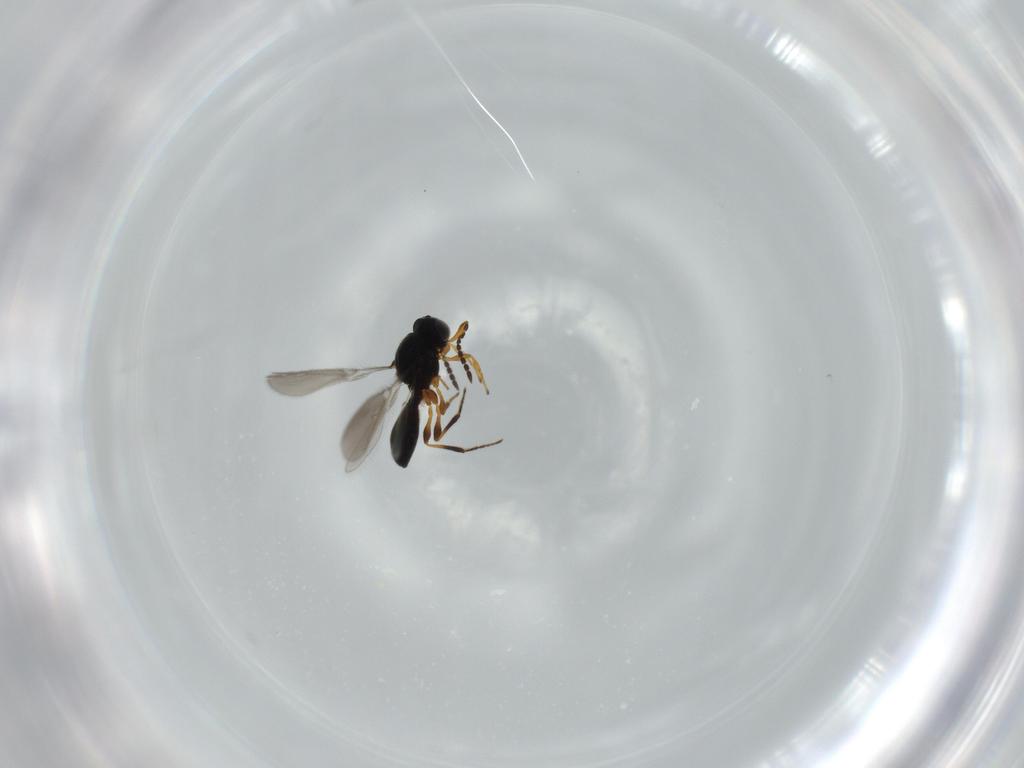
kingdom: Animalia
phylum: Arthropoda
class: Insecta
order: Hymenoptera
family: Platygastridae
